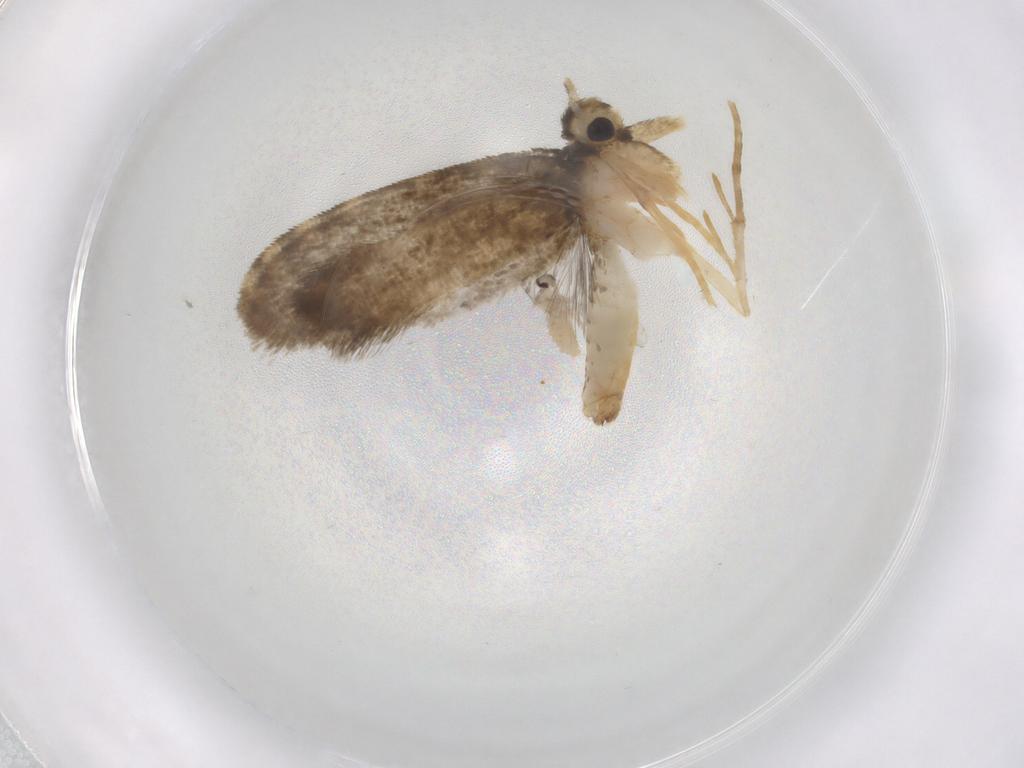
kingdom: Animalia
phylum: Arthropoda
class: Insecta
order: Lepidoptera
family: Psychidae
